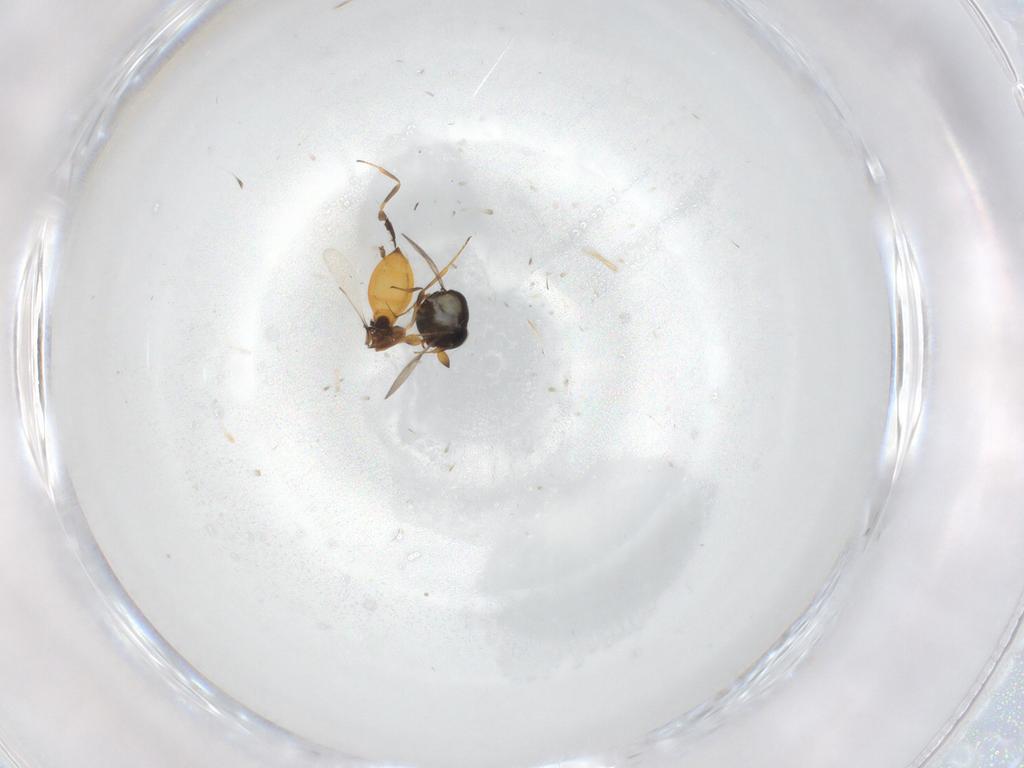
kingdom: Animalia
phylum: Arthropoda
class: Insecta
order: Hymenoptera
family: Scelionidae
